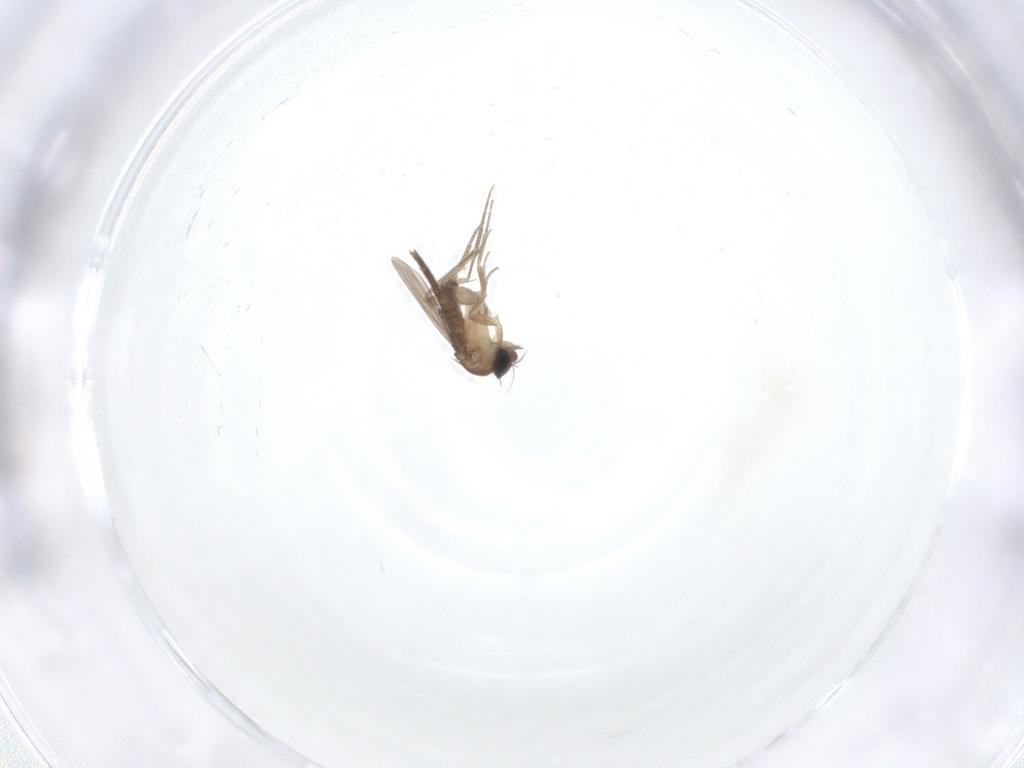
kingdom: Animalia
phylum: Arthropoda
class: Insecta
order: Diptera
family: Phoridae
